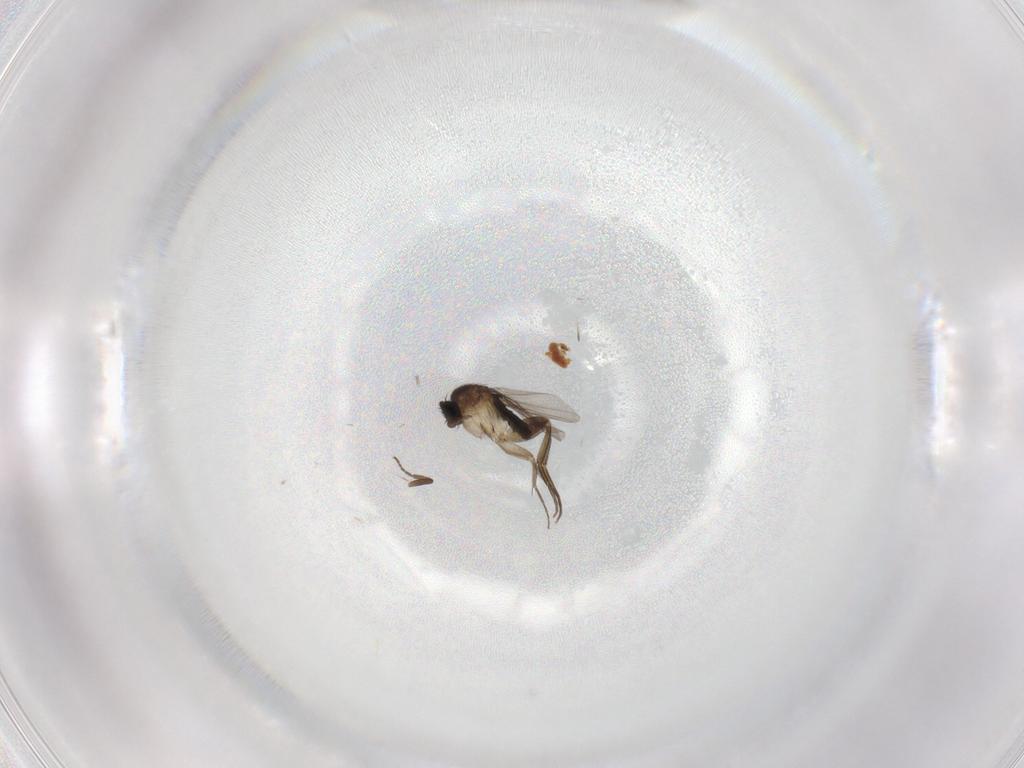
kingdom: Animalia
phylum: Arthropoda
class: Insecta
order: Diptera
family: Phoridae
